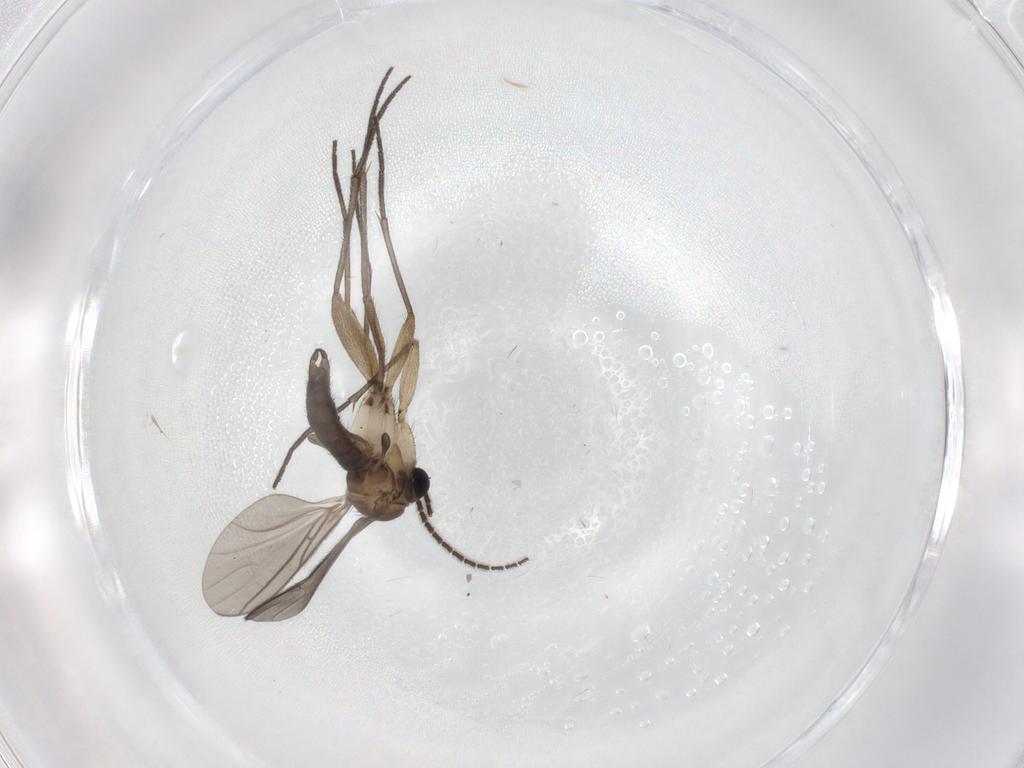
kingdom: Animalia
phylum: Arthropoda
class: Insecta
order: Diptera
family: Sciaridae
